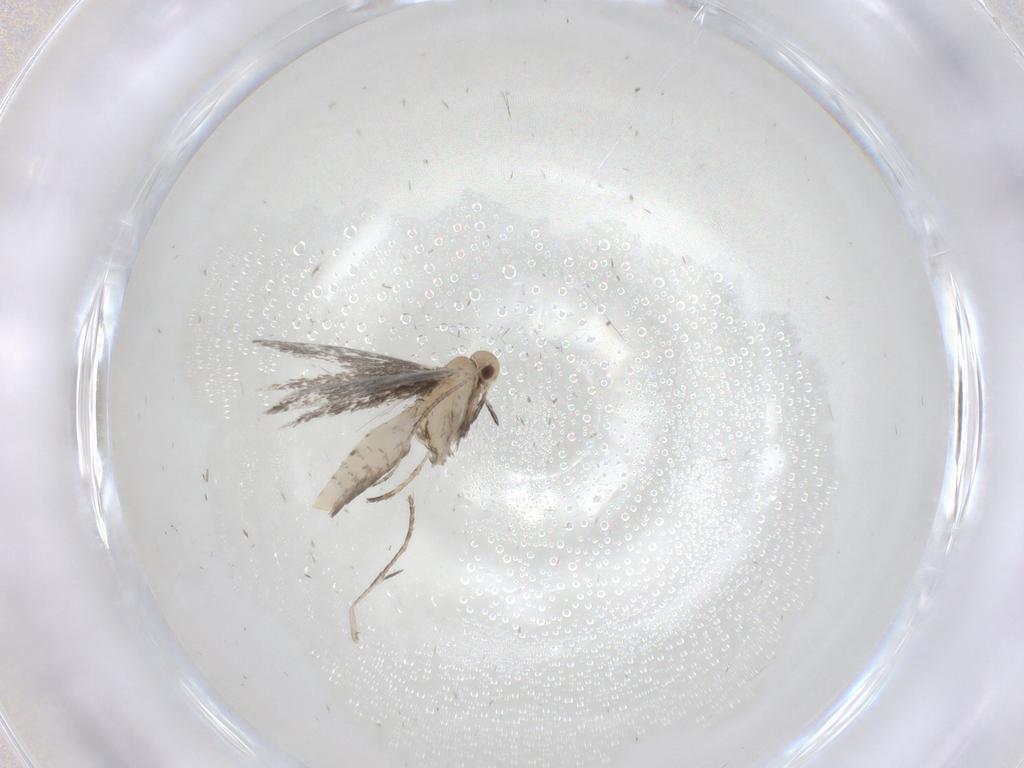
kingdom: Animalia
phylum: Arthropoda
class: Insecta
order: Lepidoptera
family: Gracillariidae
